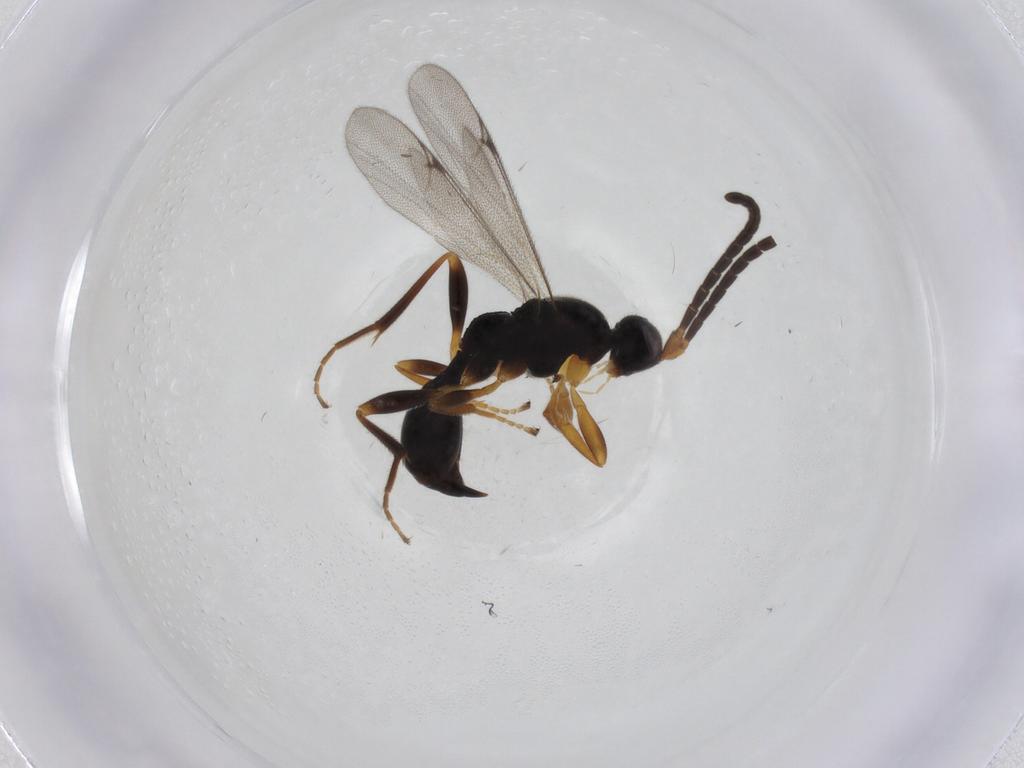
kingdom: Animalia
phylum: Arthropoda
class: Insecta
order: Hymenoptera
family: Proctotrupidae
